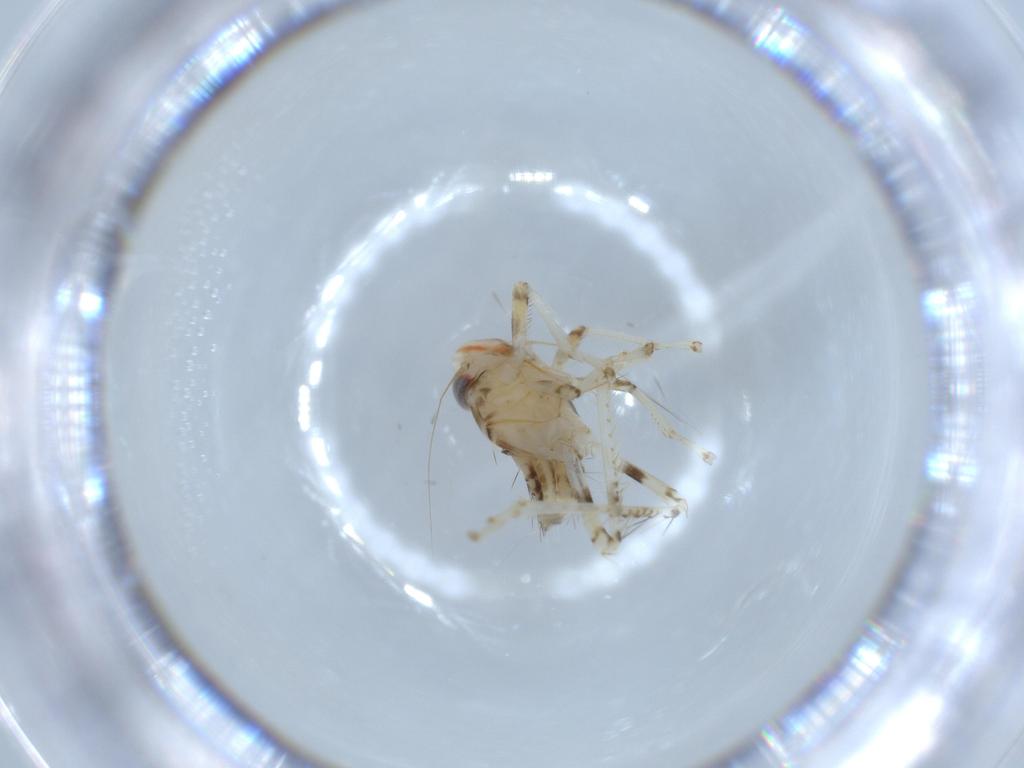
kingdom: Animalia
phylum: Arthropoda
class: Insecta
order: Hemiptera
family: Cicadellidae
